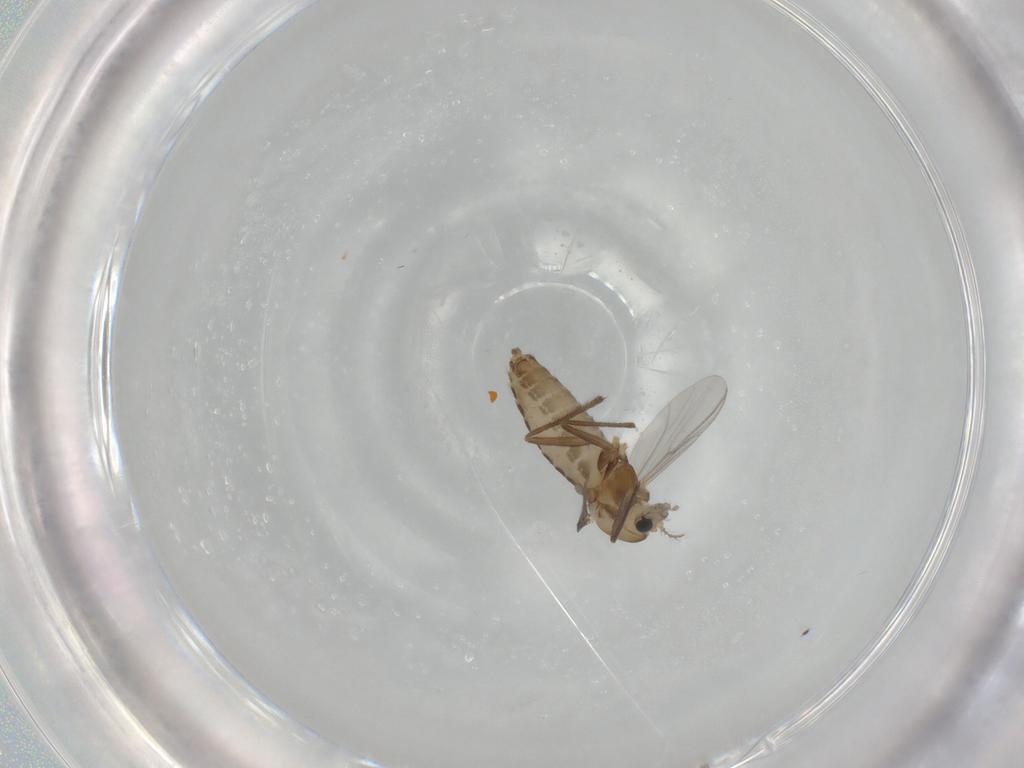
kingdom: Animalia
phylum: Arthropoda
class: Insecta
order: Diptera
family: Chironomidae
